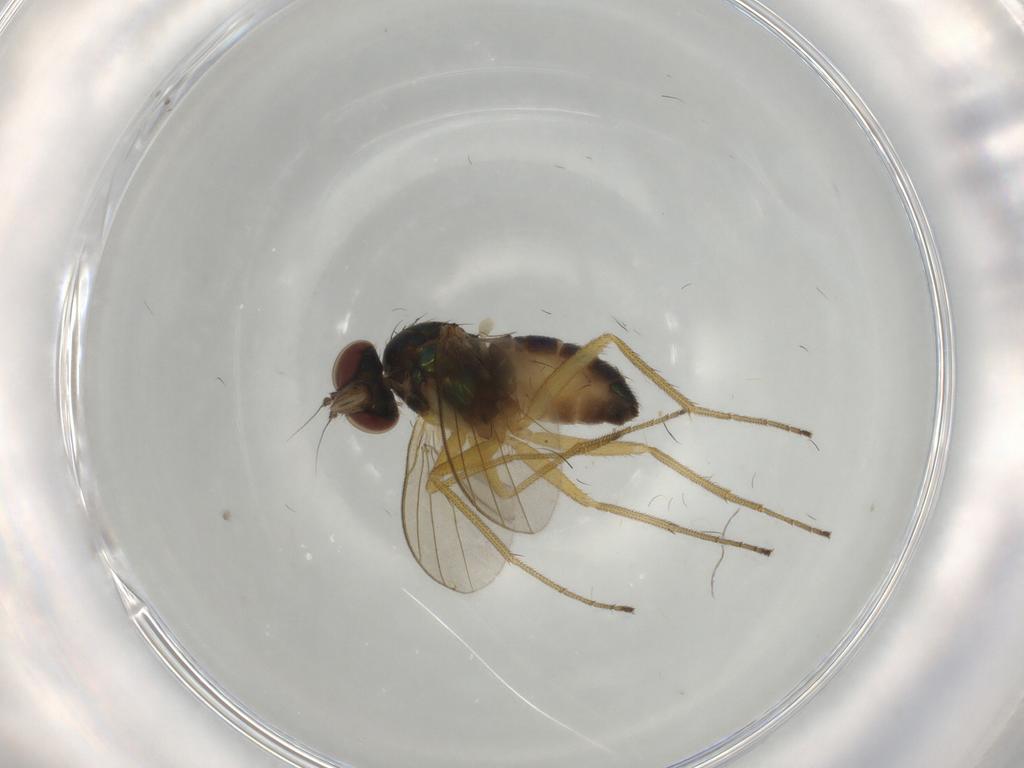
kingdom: Animalia
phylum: Arthropoda
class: Insecta
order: Diptera
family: Dolichopodidae
